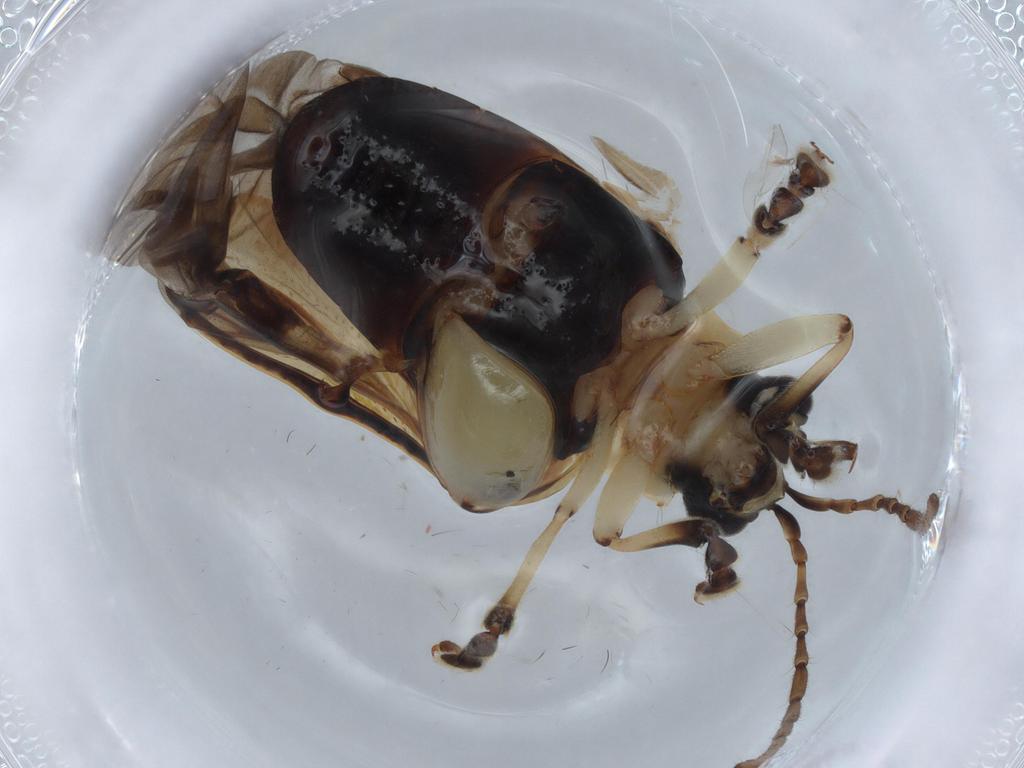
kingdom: Animalia
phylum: Arthropoda
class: Insecta
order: Coleoptera
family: Chrysomelidae
